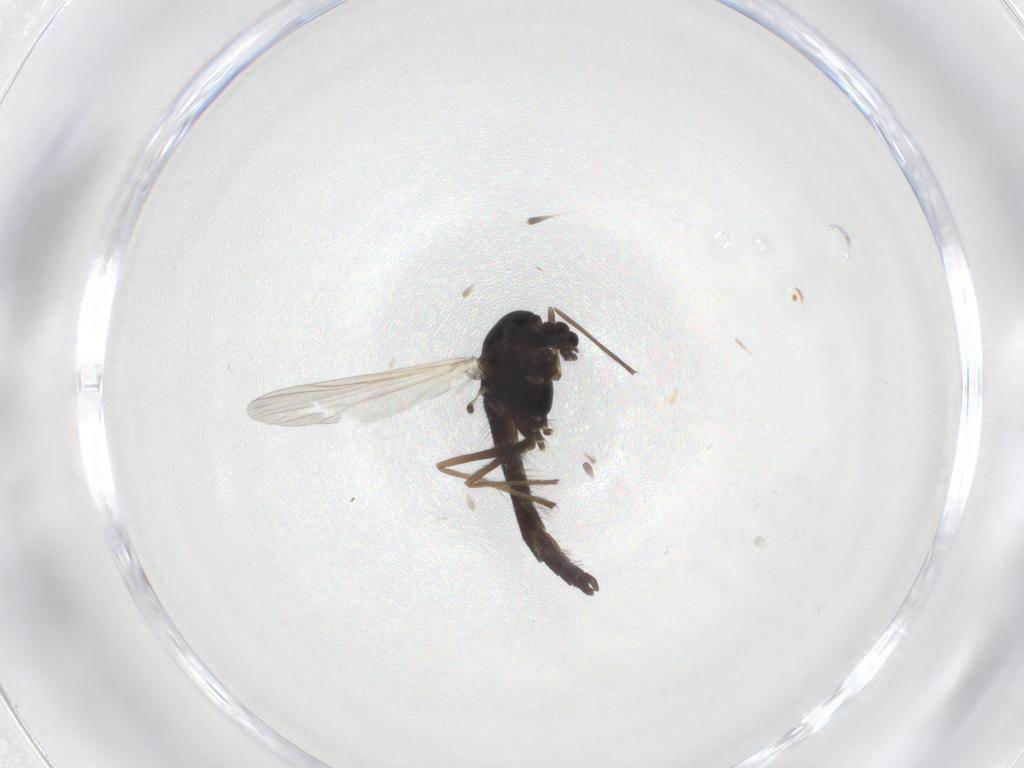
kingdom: Animalia
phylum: Arthropoda
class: Insecta
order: Diptera
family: Chironomidae
